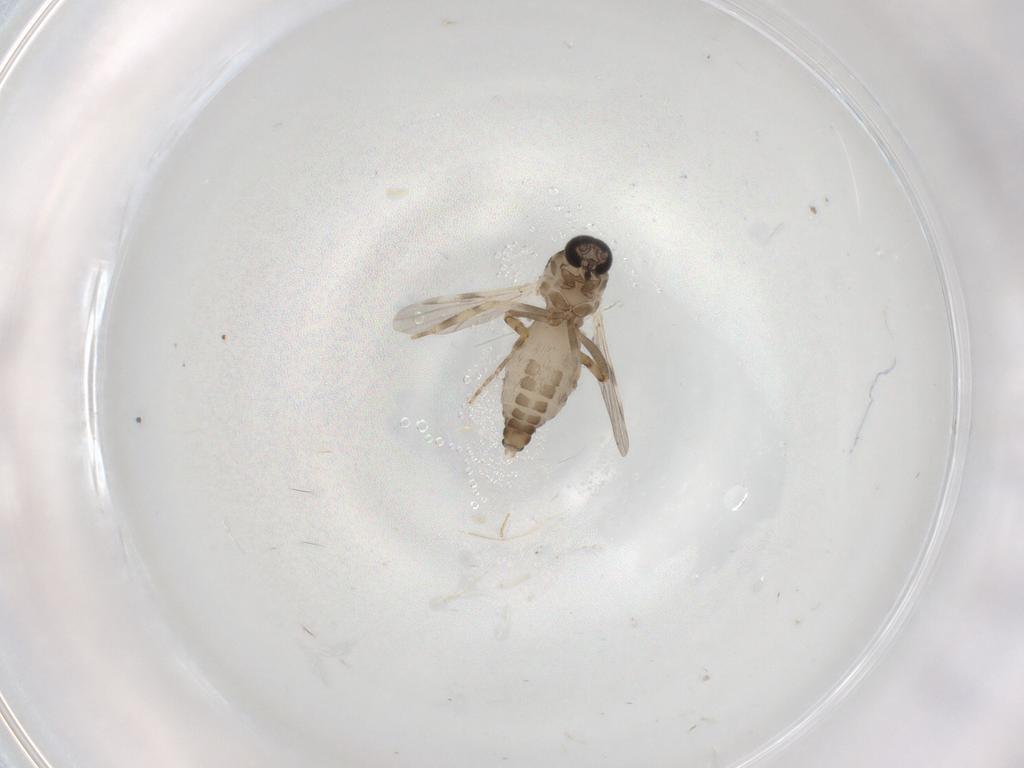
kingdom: Animalia
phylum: Arthropoda
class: Insecta
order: Diptera
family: Ceratopogonidae
